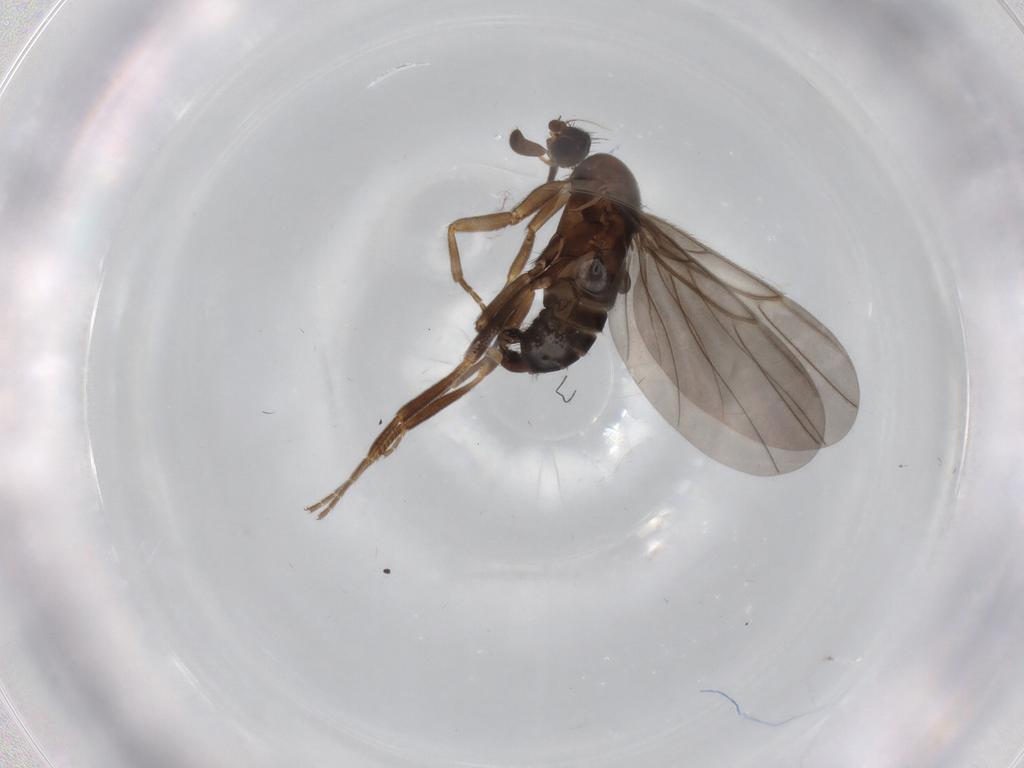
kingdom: Animalia
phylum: Arthropoda
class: Insecta
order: Diptera
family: Phoridae
